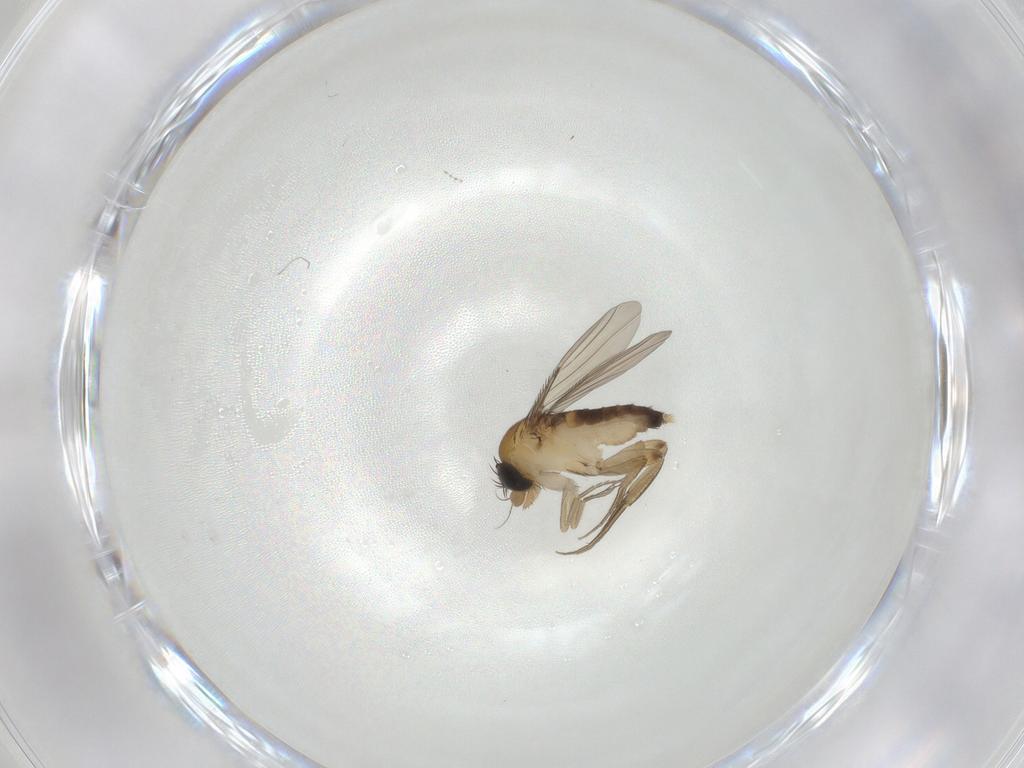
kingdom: Animalia
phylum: Arthropoda
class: Insecta
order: Diptera
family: Phoridae
